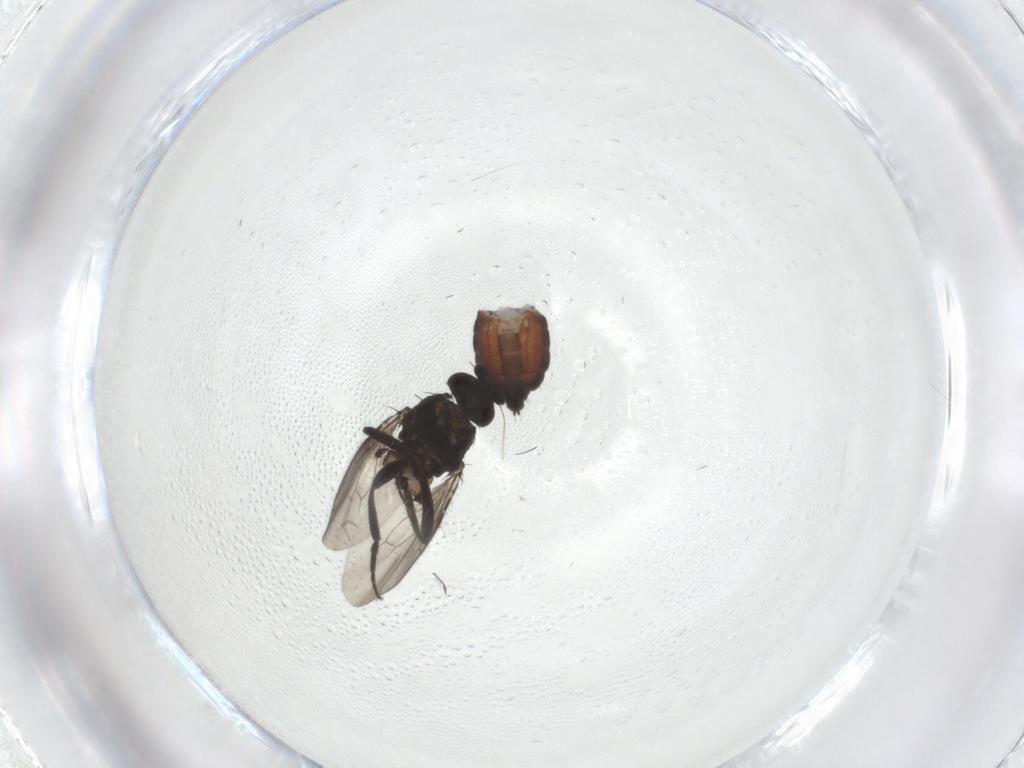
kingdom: Animalia
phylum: Arthropoda
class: Insecta
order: Diptera
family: Sphaeroceridae
